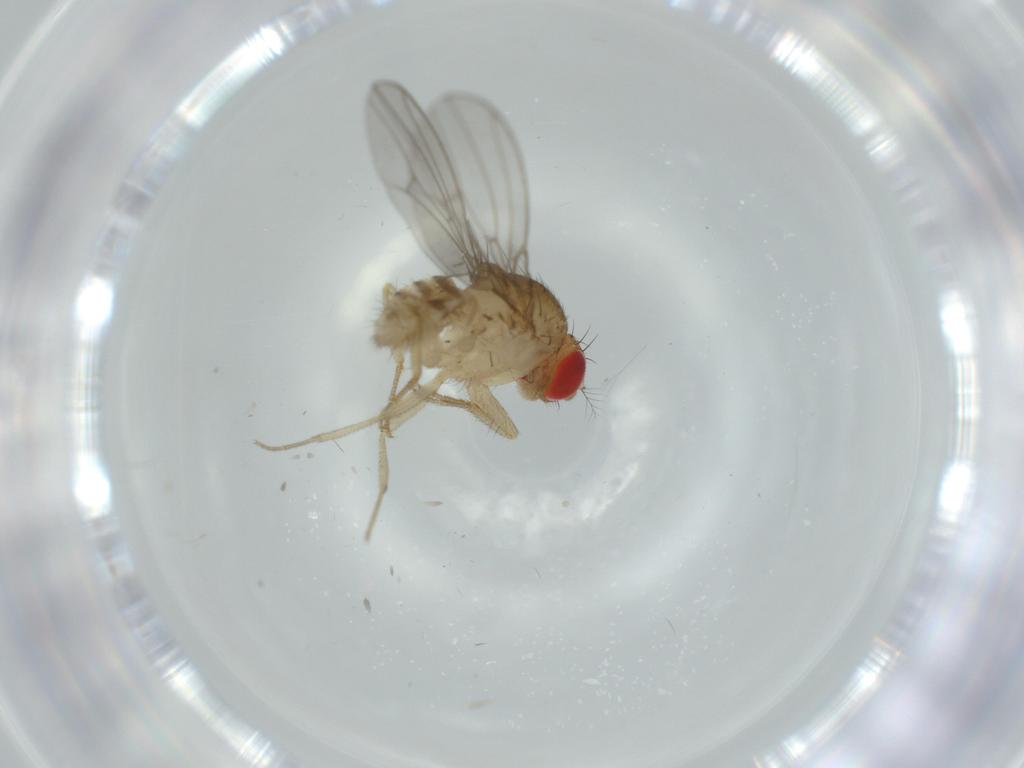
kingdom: Animalia
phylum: Arthropoda
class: Insecta
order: Diptera
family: Drosophilidae
